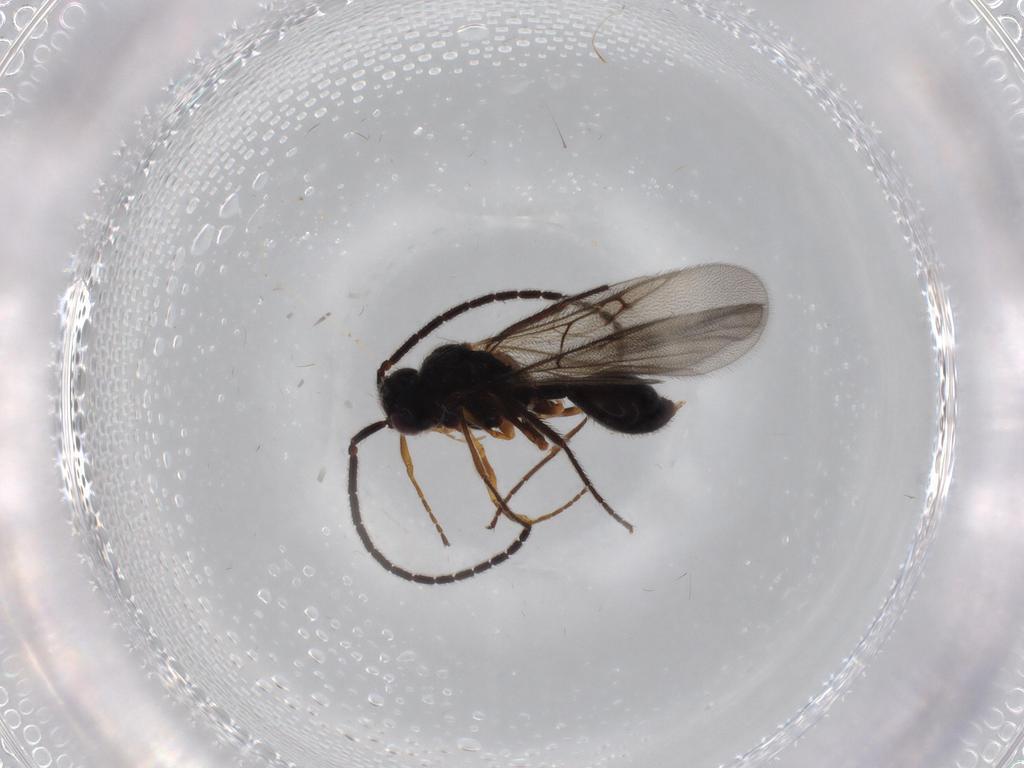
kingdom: Animalia
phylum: Arthropoda
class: Insecta
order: Hymenoptera
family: Diapriidae
